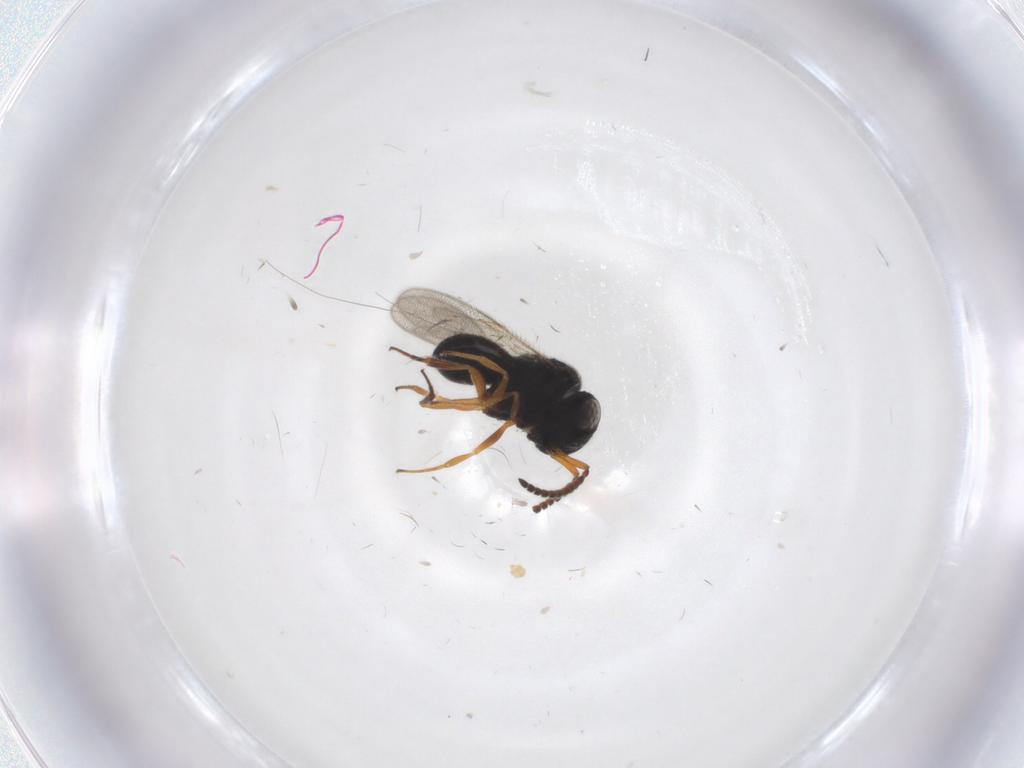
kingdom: Animalia
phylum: Arthropoda
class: Insecta
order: Hymenoptera
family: Scelionidae
